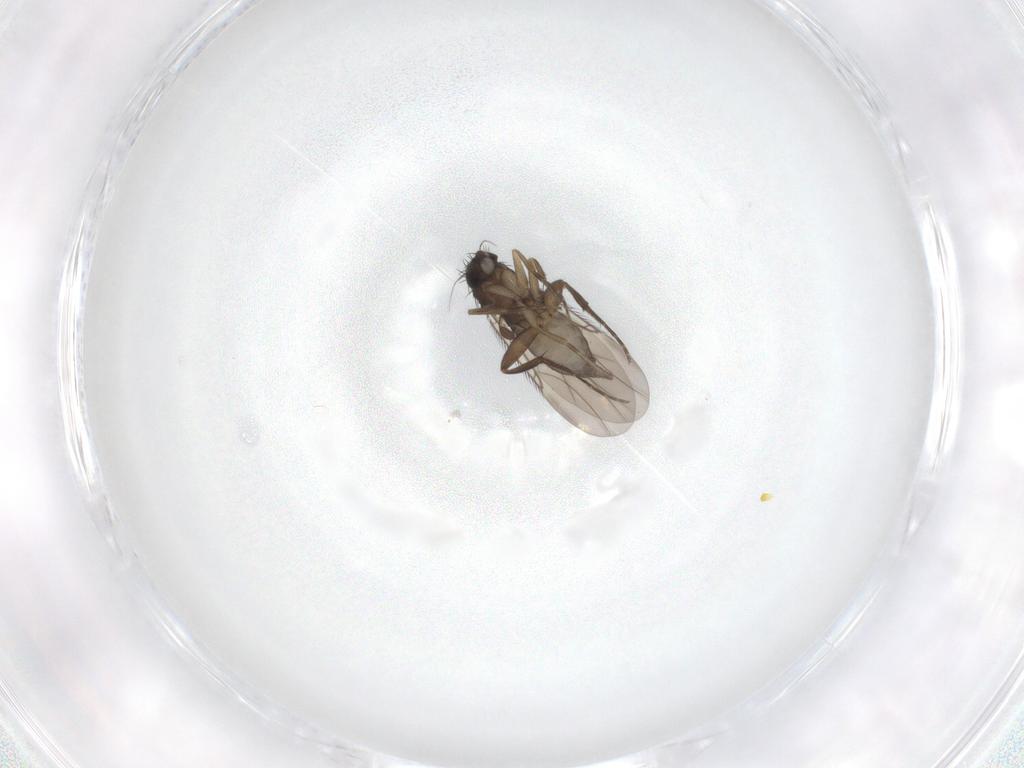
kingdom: Animalia
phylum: Arthropoda
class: Insecta
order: Diptera
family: Phoridae
